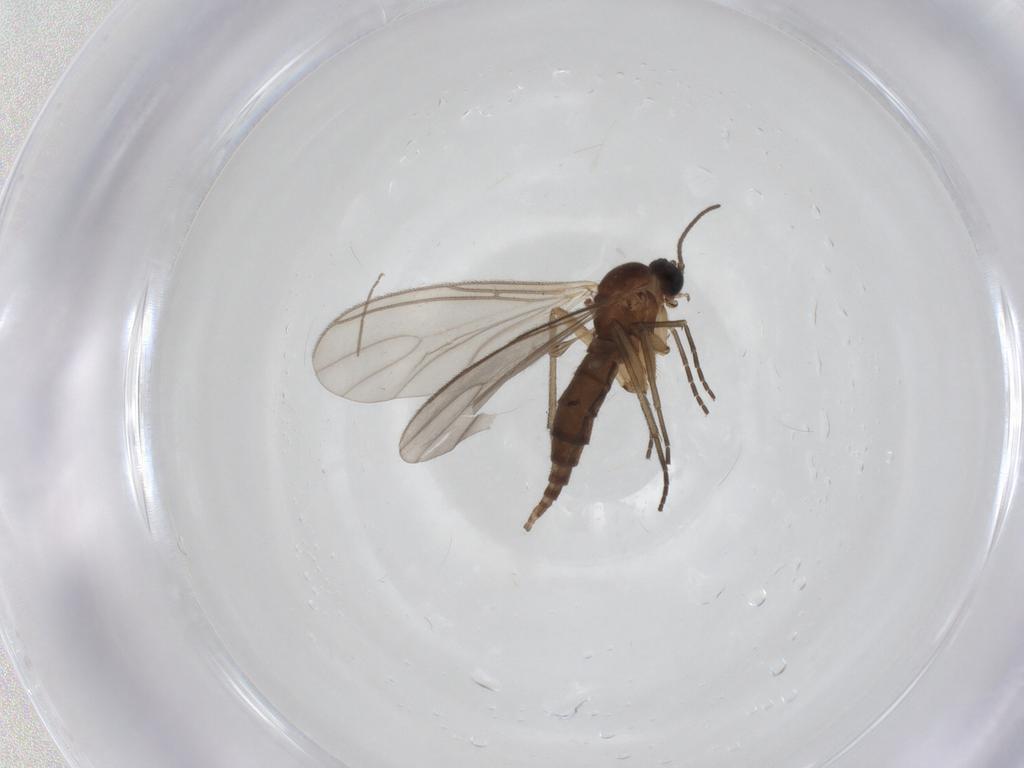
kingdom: Animalia
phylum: Arthropoda
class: Insecta
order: Diptera
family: Sciaridae
